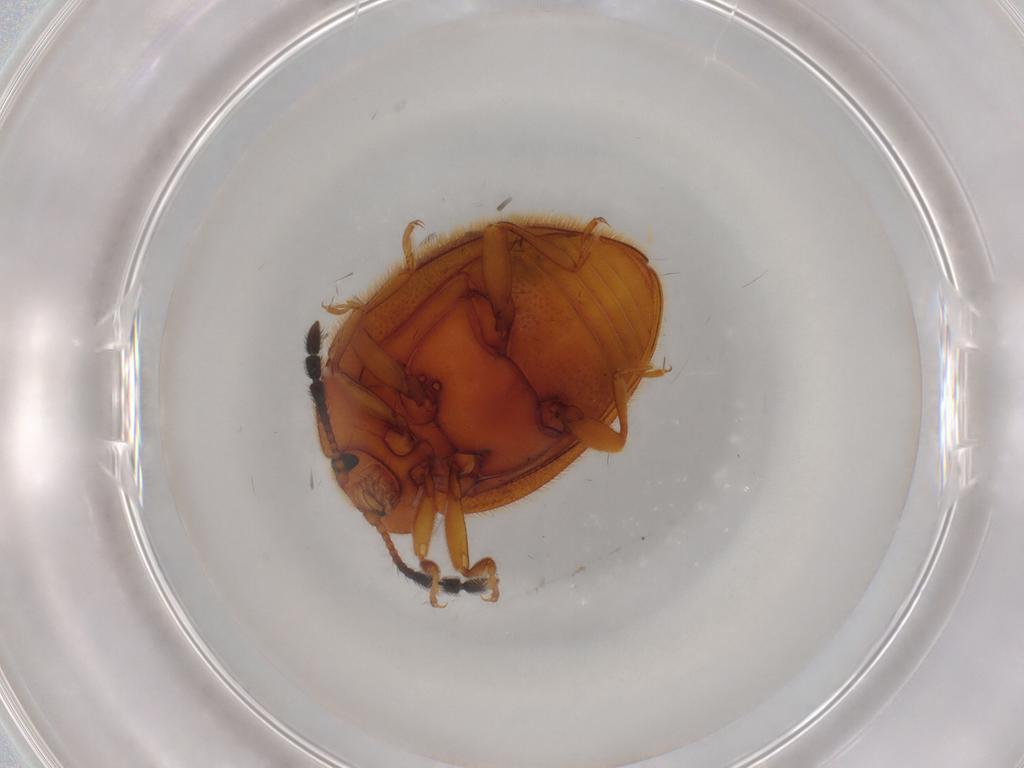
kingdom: Animalia
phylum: Arthropoda
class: Insecta
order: Coleoptera
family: Endomychidae
